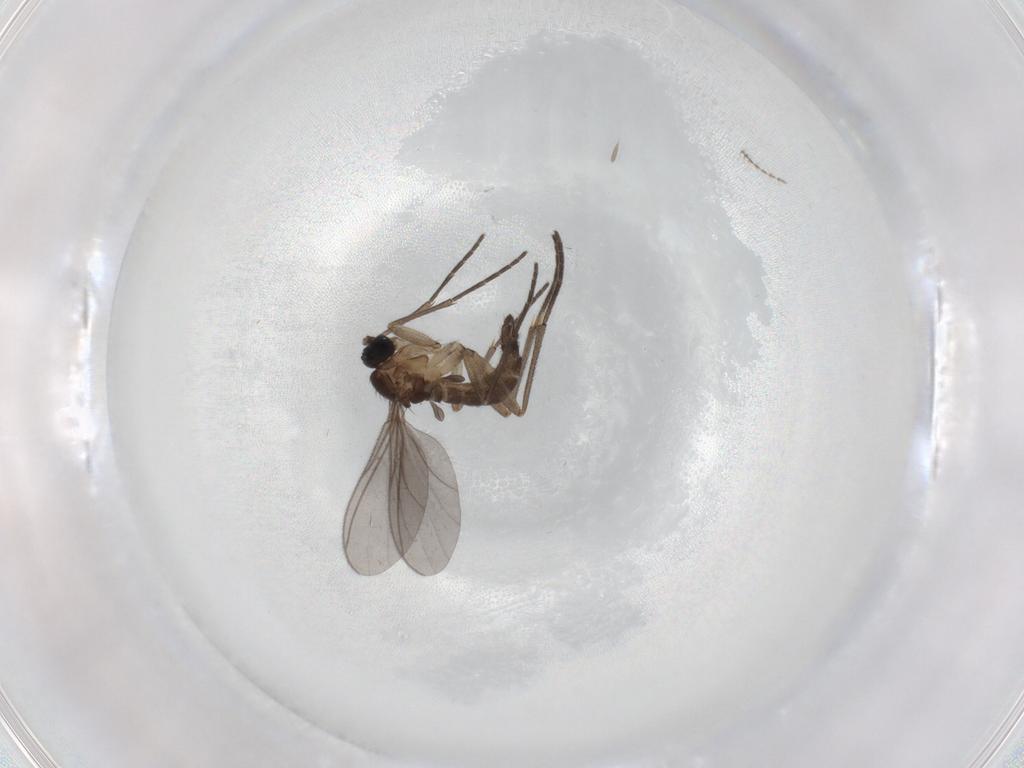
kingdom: Animalia
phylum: Arthropoda
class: Insecta
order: Diptera
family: Sciaridae
